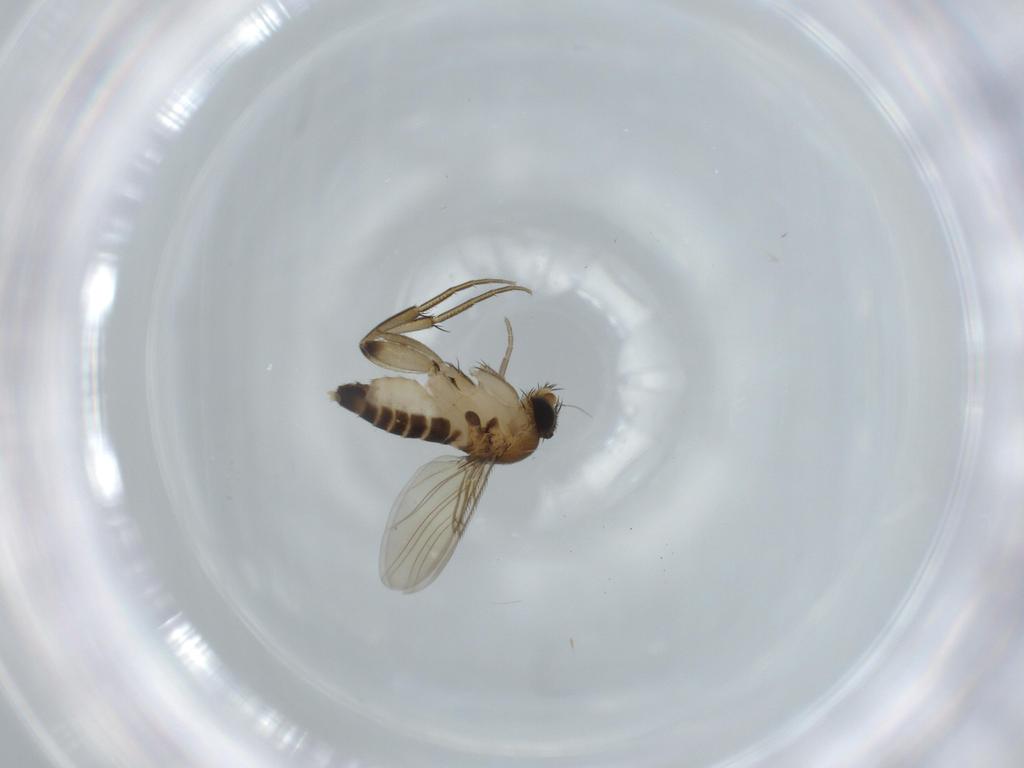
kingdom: Animalia
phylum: Arthropoda
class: Insecta
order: Diptera
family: Phoridae
